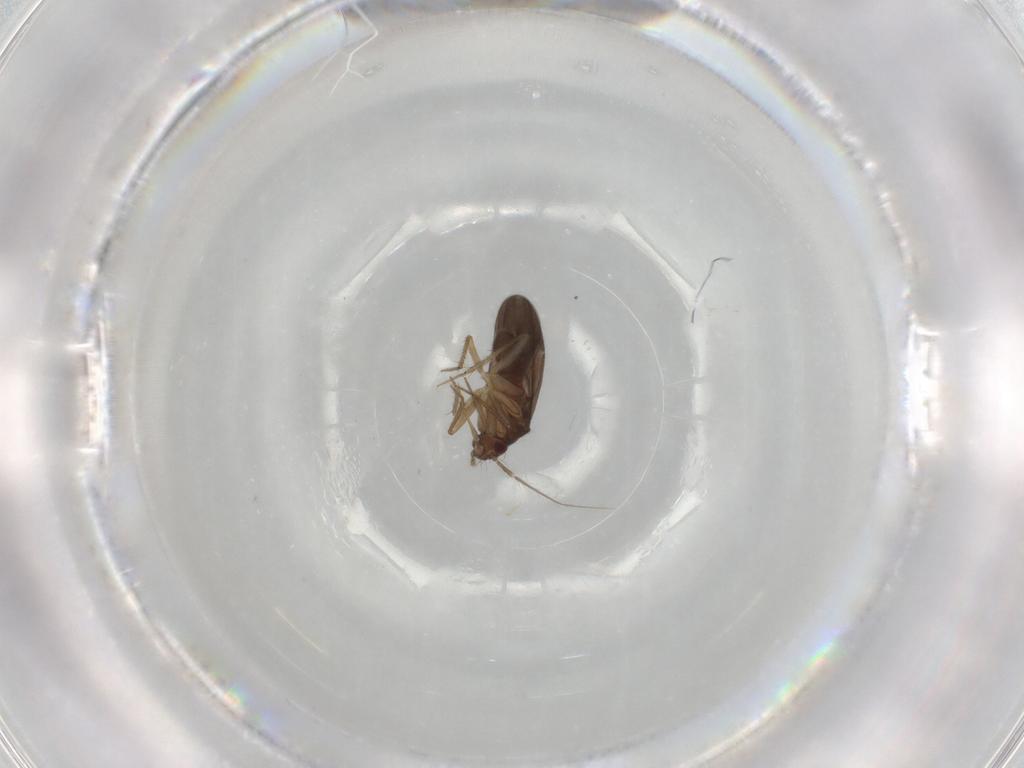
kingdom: Animalia
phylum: Arthropoda
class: Insecta
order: Hemiptera
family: Ceratocombidae
